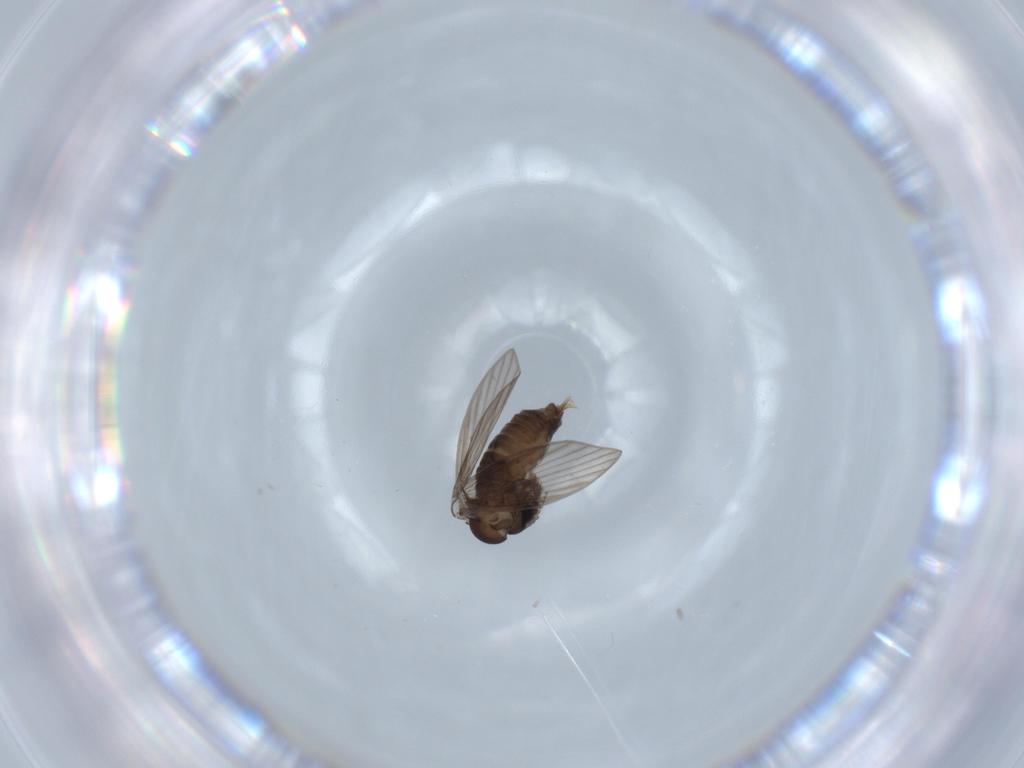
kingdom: Animalia
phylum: Arthropoda
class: Insecta
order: Diptera
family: Psychodidae
